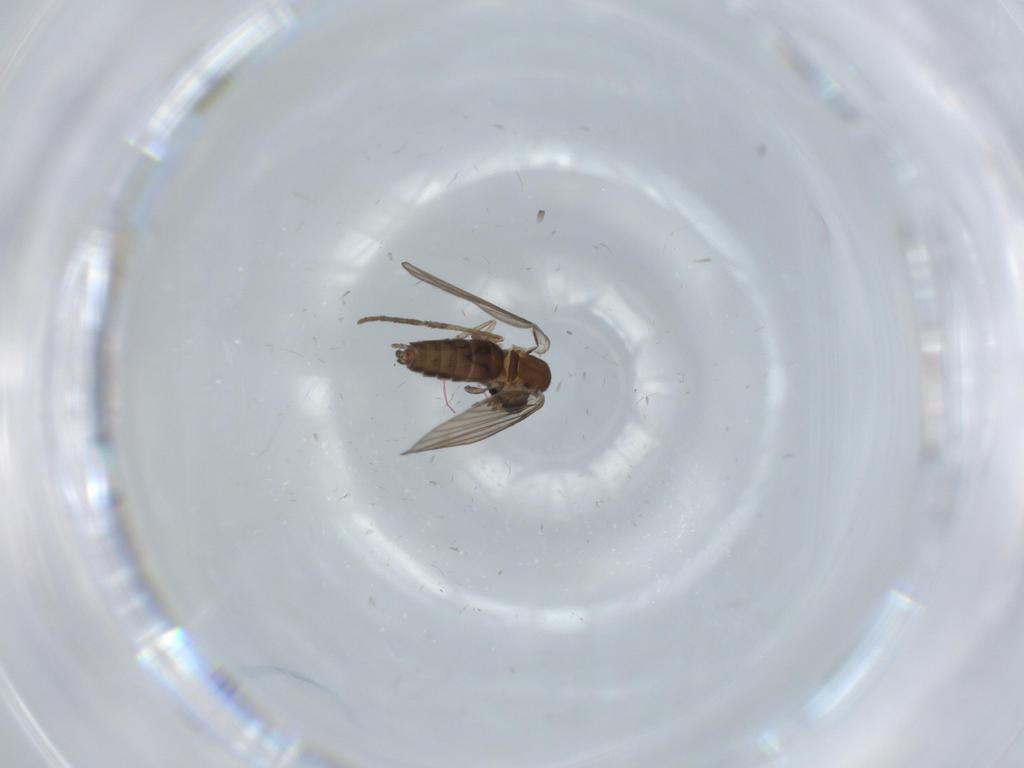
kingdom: Animalia
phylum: Arthropoda
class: Insecta
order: Diptera
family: Psychodidae
